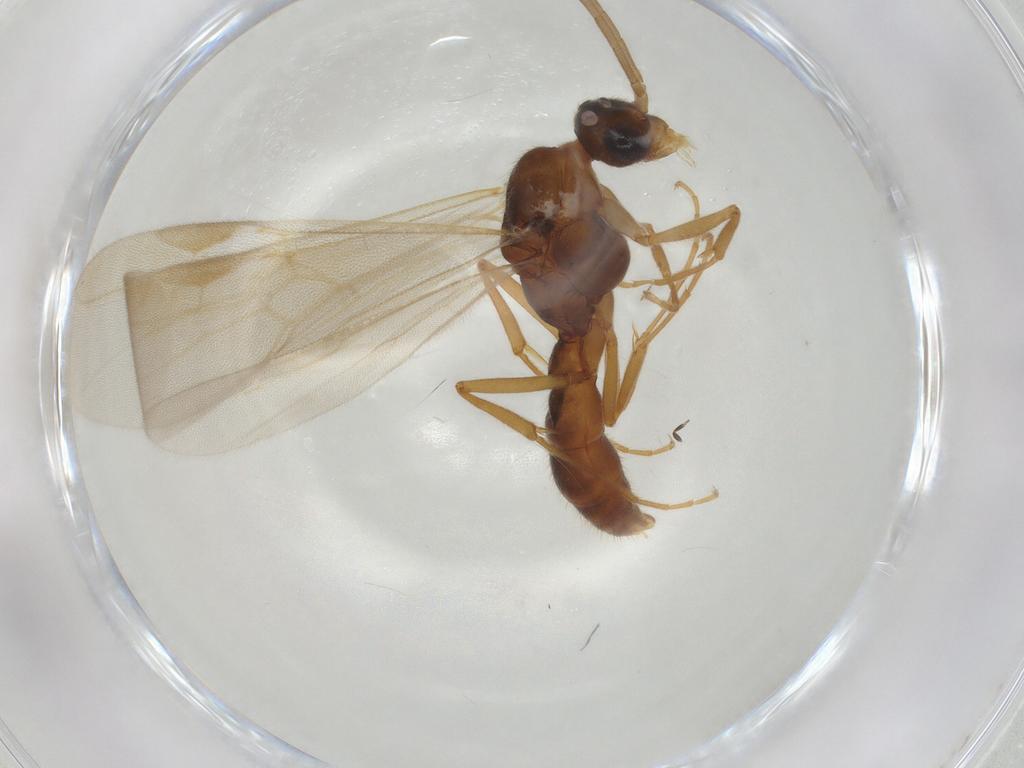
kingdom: Animalia
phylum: Arthropoda
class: Insecta
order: Hymenoptera
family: Formicidae
